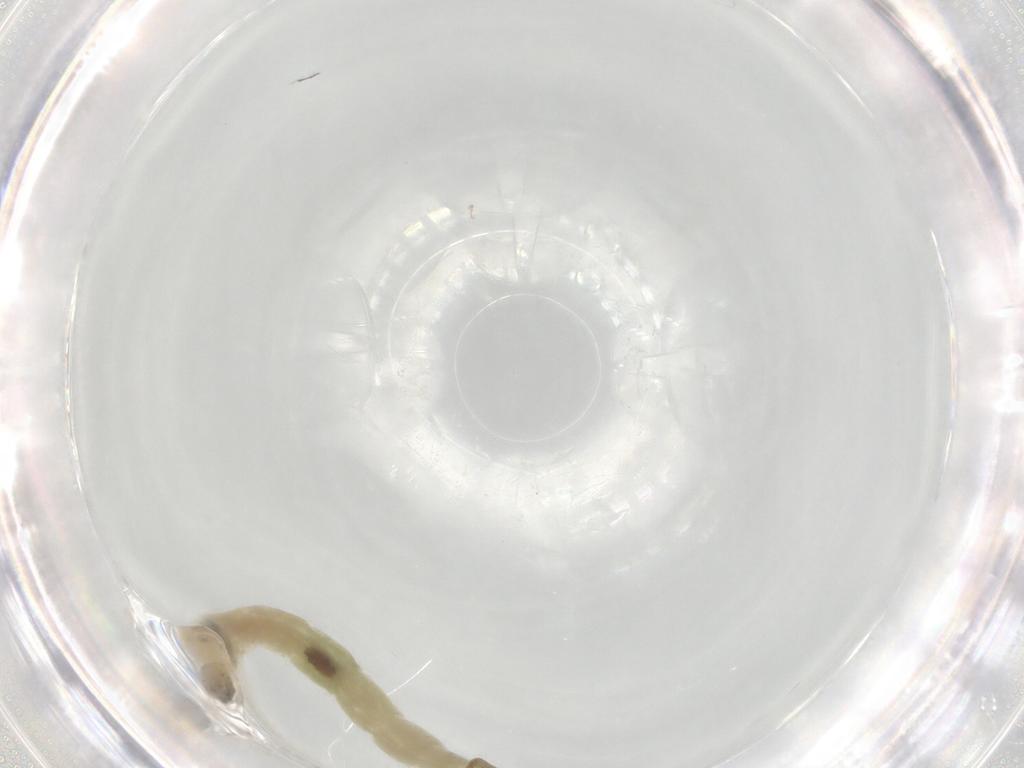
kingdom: Animalia
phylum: Arthropoda
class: Insecta
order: Diptera
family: Chironomidae
